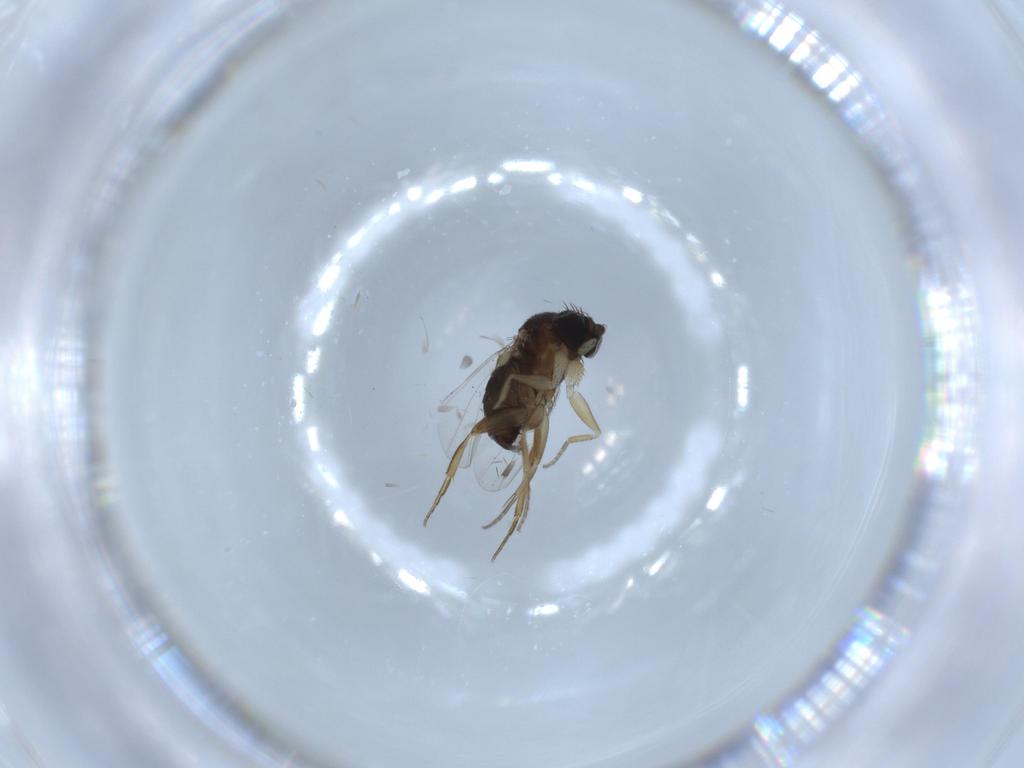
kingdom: Animalia
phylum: Arthropoda
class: Insecta
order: Diptera
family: Phoridae
